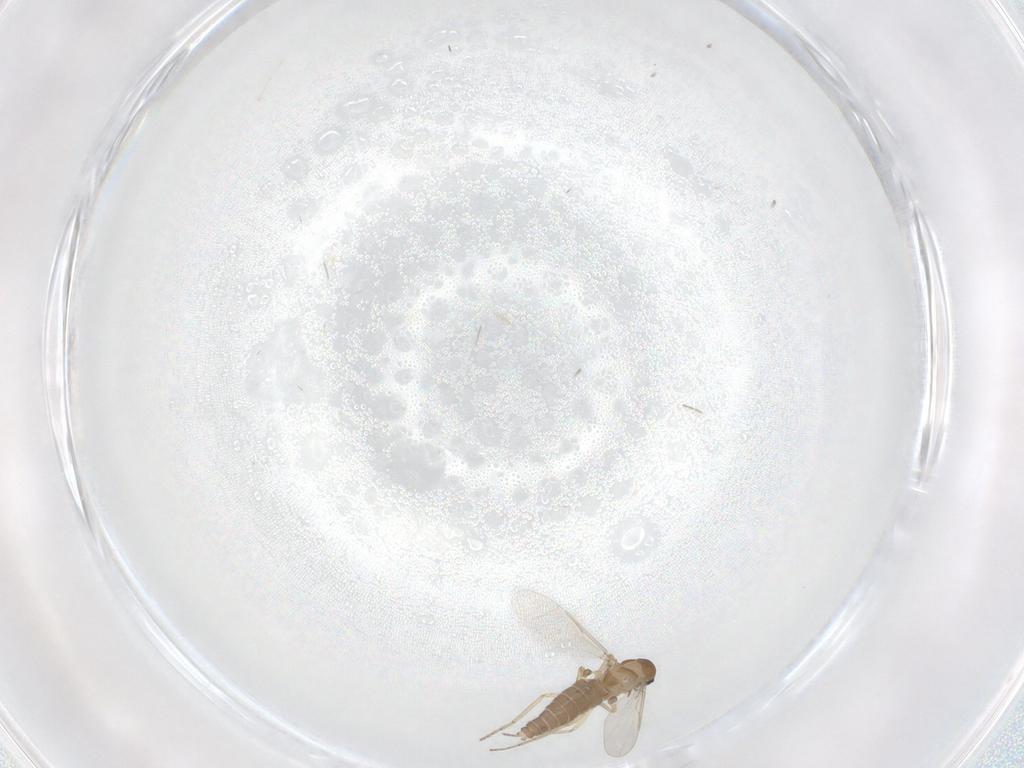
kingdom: Animalia
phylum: Arthropoda
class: Insecta
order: Diptera
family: Ceratopogonidae
